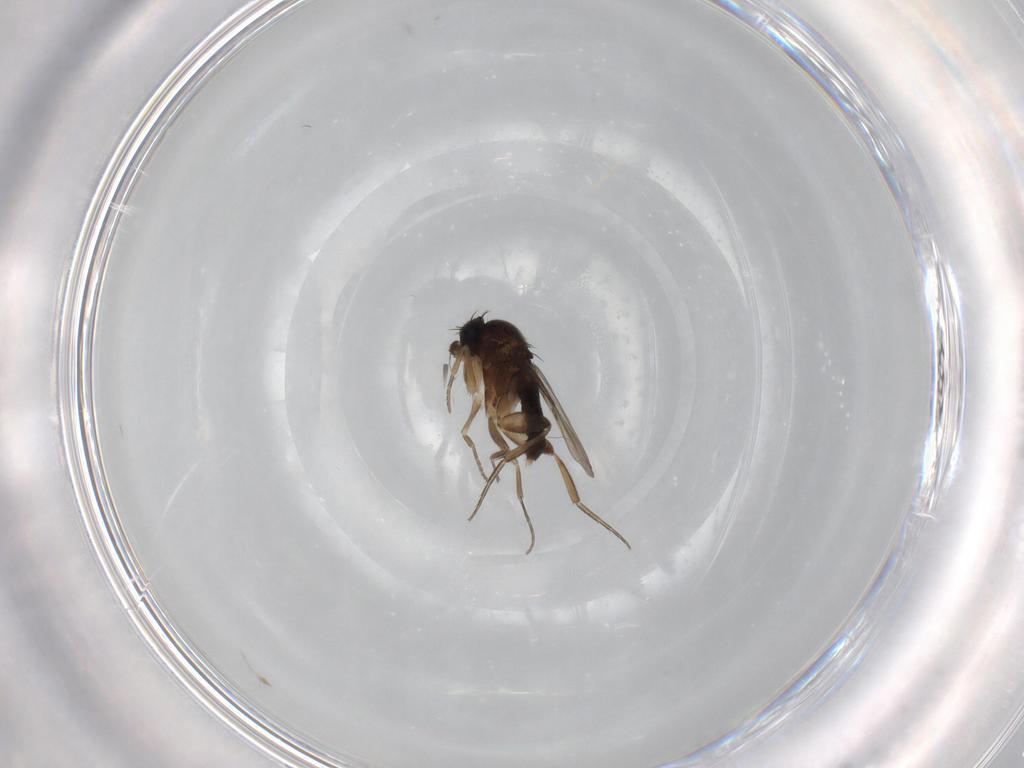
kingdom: Animalia
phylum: Arthropoda
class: Insecta
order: Diptera
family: Phoridae
